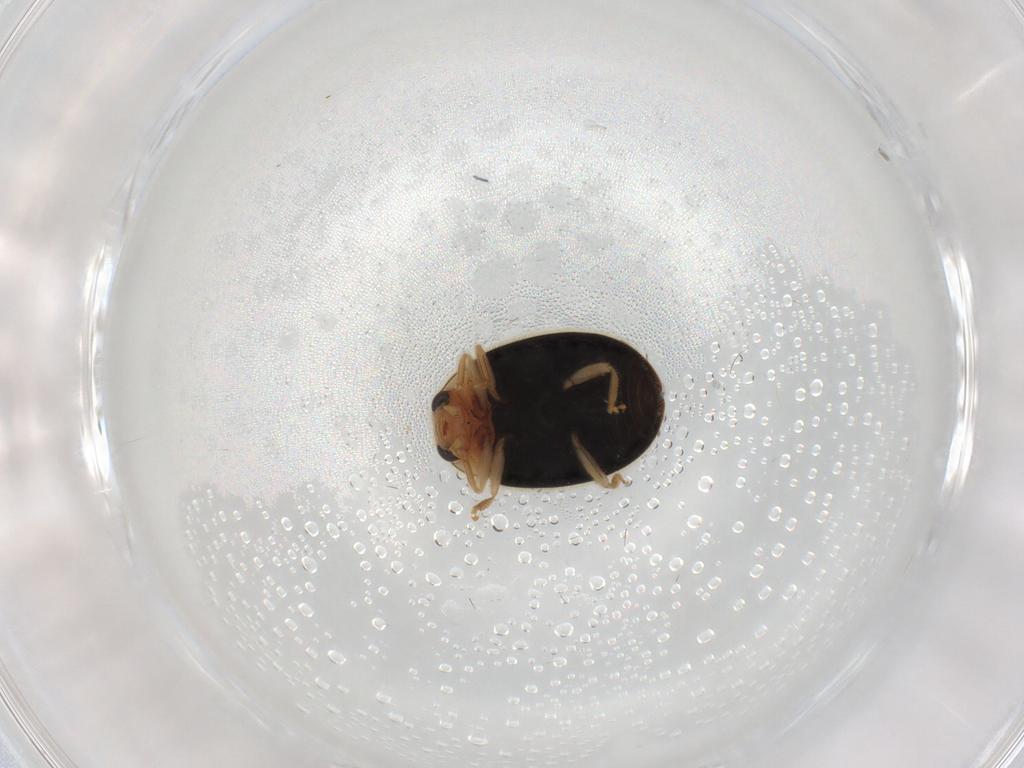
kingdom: Animalia
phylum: Arthropoda
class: Insecta
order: Coleoptera
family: Coccinellidae
